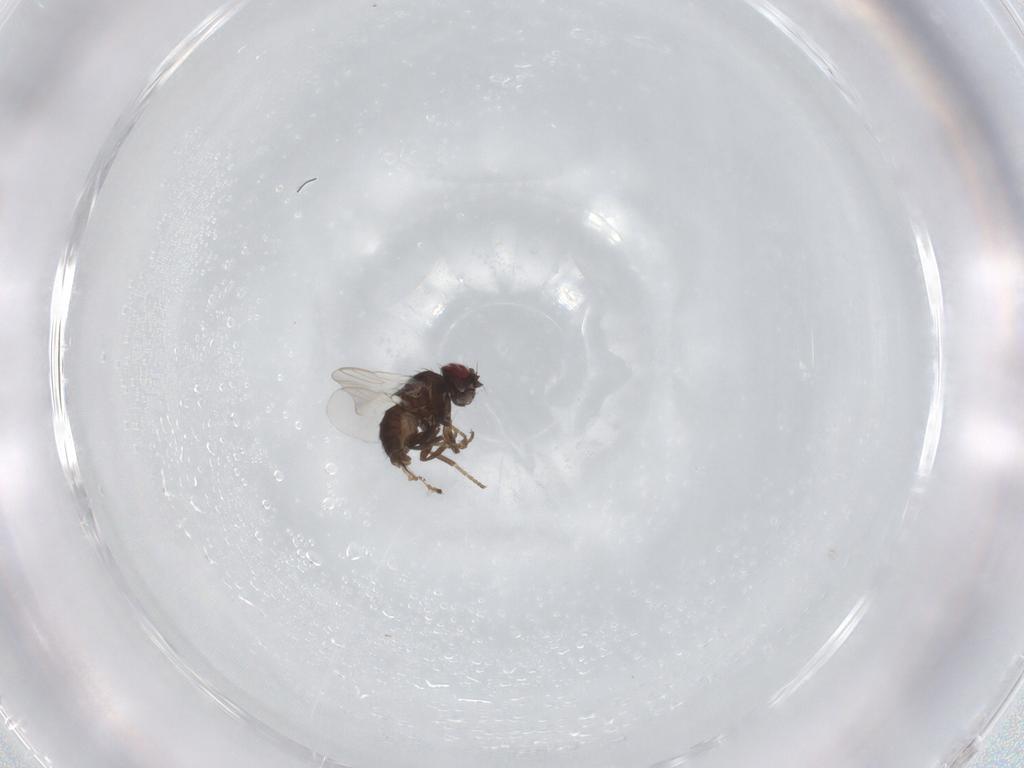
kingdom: Animalia
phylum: Arthropoda
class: Insecta
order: Diptera
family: Agromyzidae
